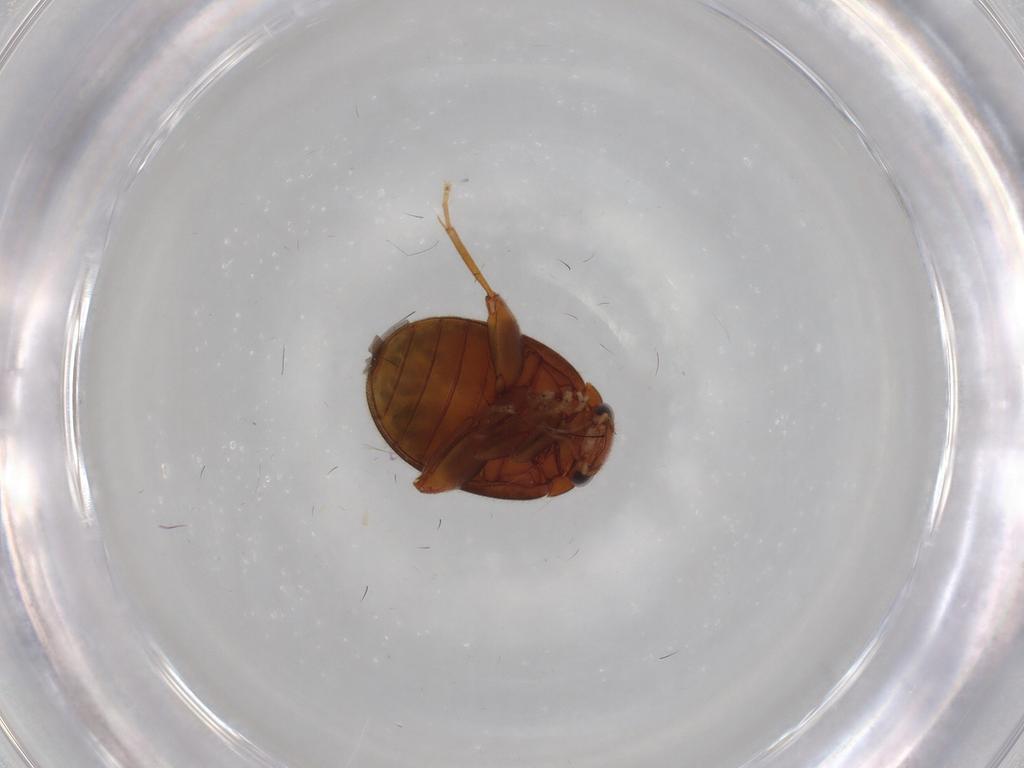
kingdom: Animalia
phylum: Arthropoda
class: Insecta
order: Coleoptera
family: Scirtidae
